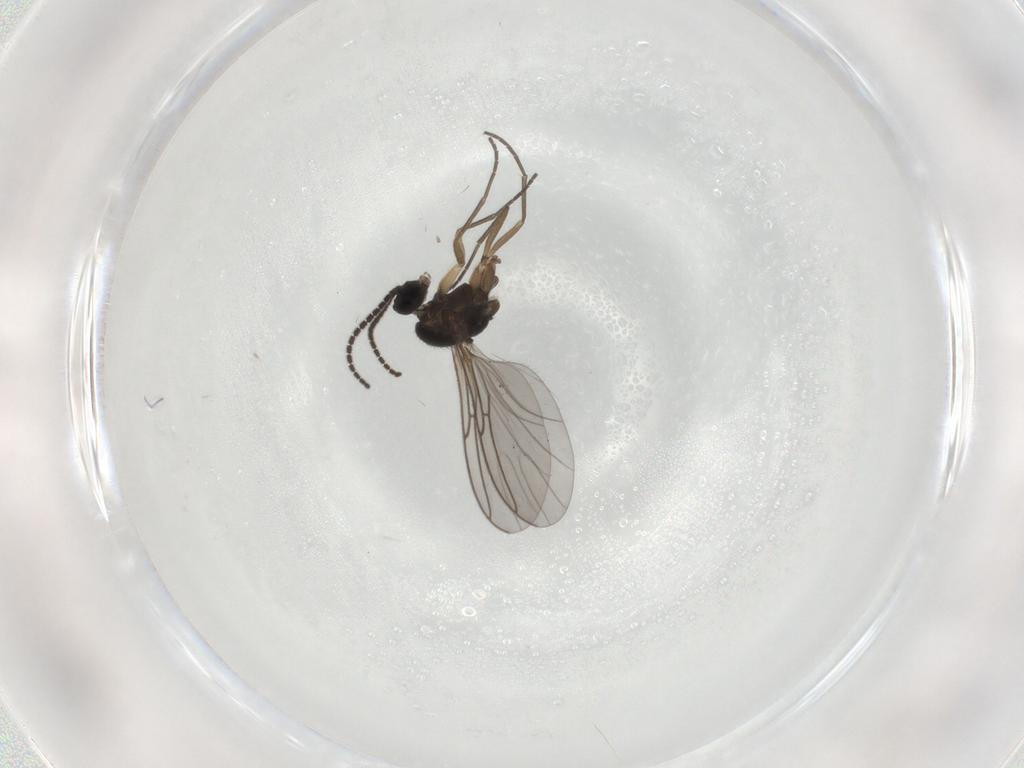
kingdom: Animalia
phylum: Arthropoda
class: Insecta
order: Diptera
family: Sciaridae
